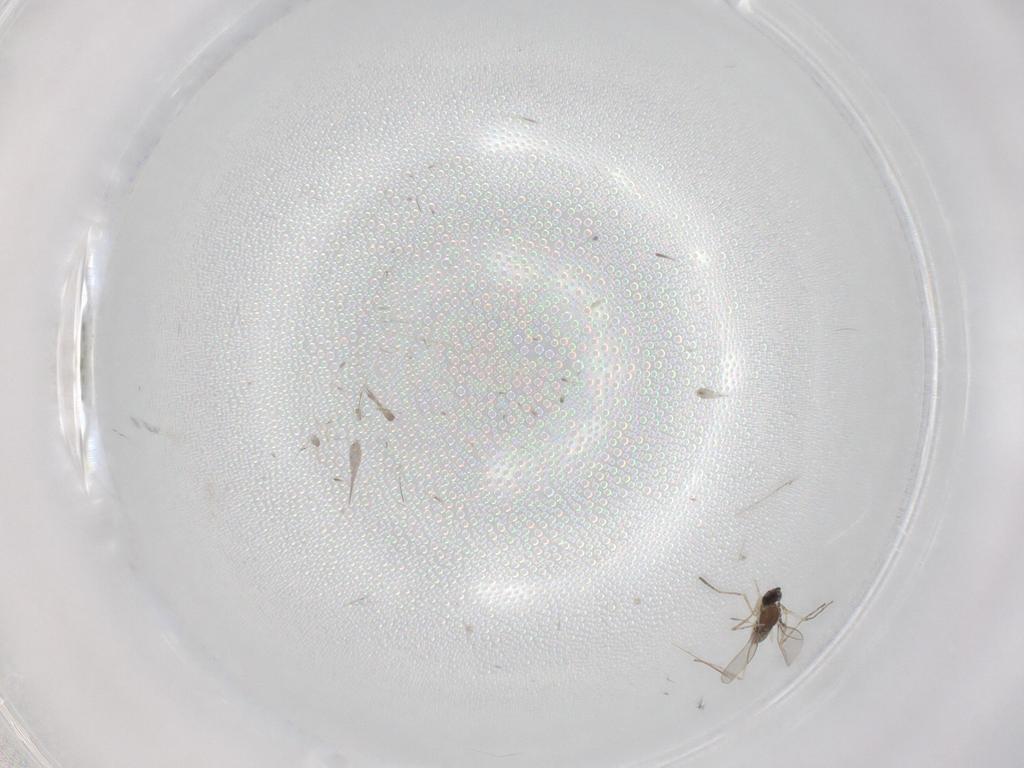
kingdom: Animalia
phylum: Arthropoda
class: Insecta
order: Diptera
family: Cecidomyiidae
